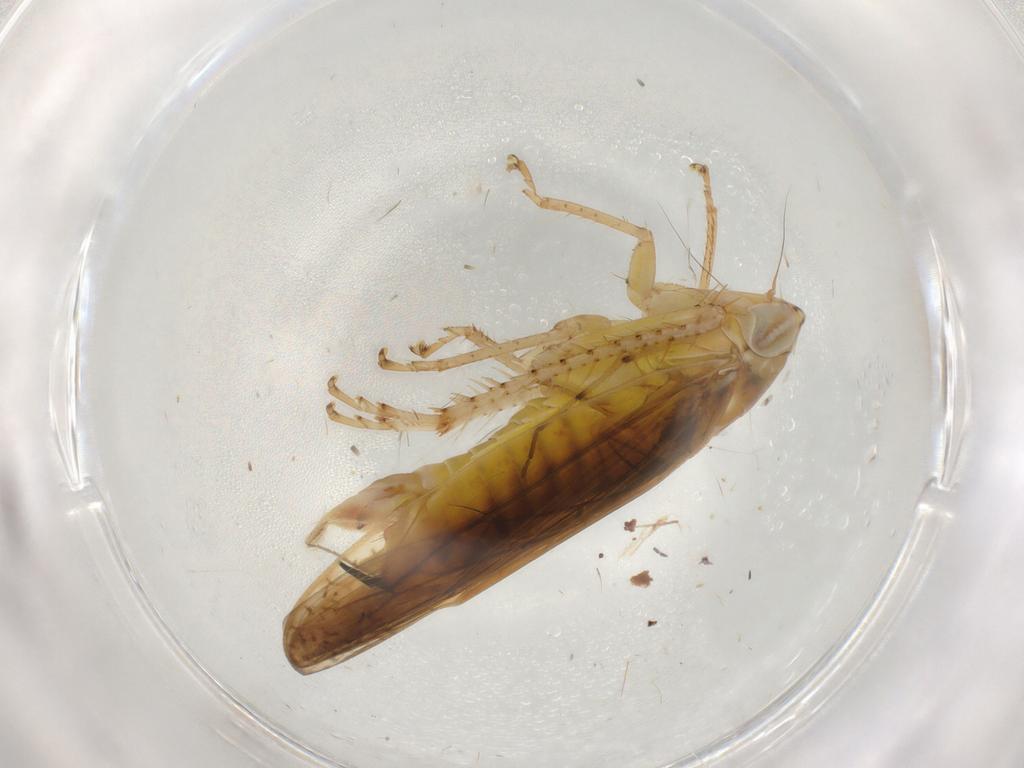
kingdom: Animalia
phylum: Arthropoda
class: Insecta
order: Hemiptera
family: Cicadellidae
